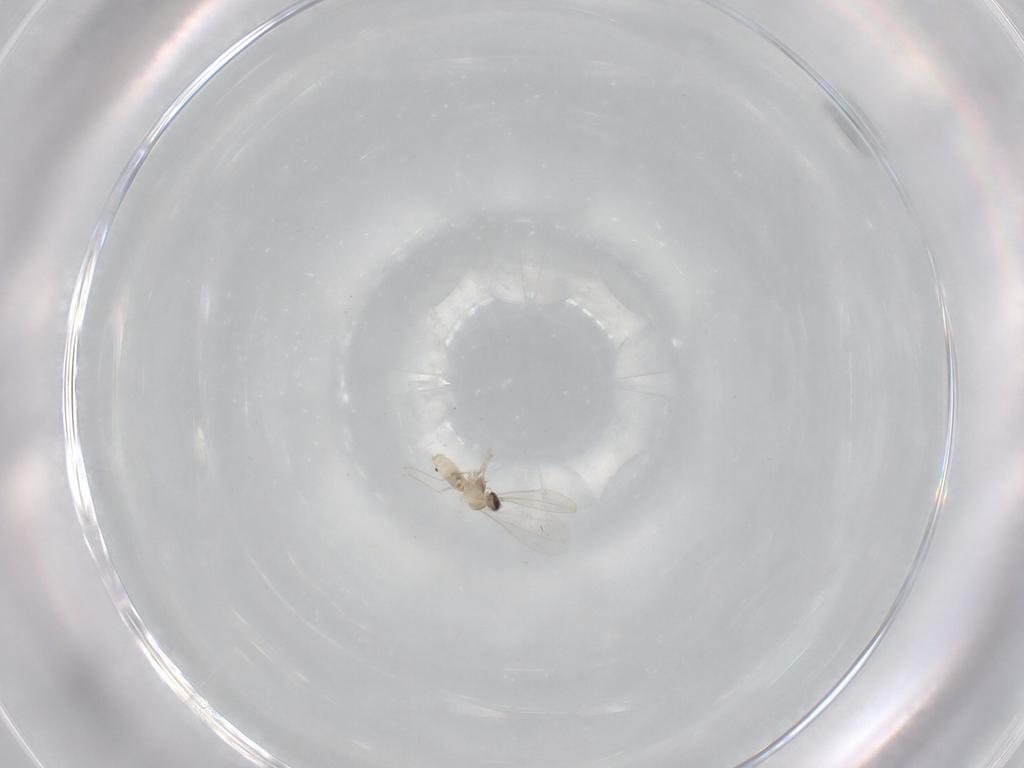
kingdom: Animalia
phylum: Arthropoda
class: Insecta
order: Diptera
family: Cecidomyiidae
